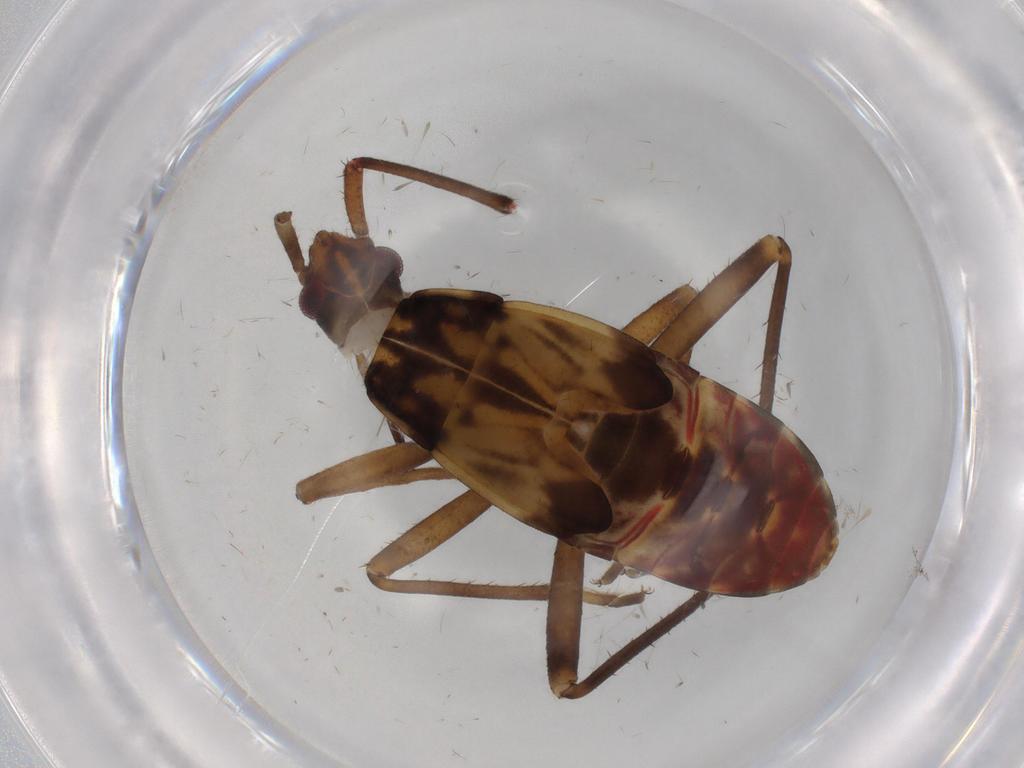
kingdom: Animalia
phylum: Arthropoda
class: Insecta
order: Hemiptera
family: Rhyparochromidae
